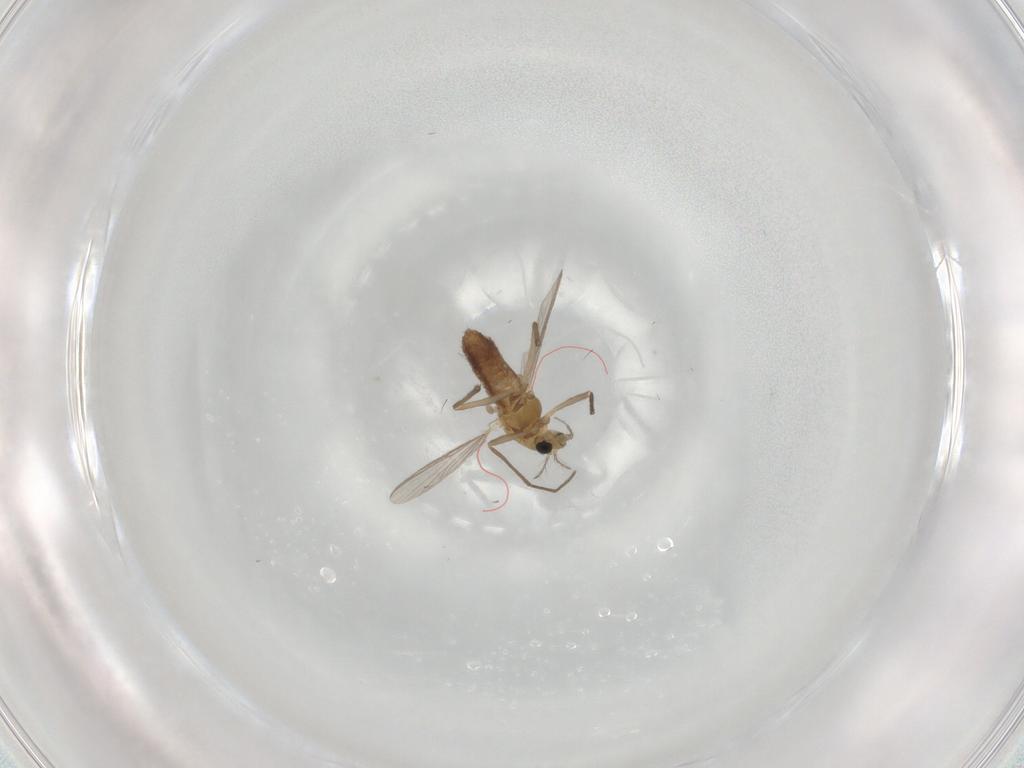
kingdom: Animalia
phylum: Arthropoda
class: Insecta
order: Diptera
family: Chironomidae
